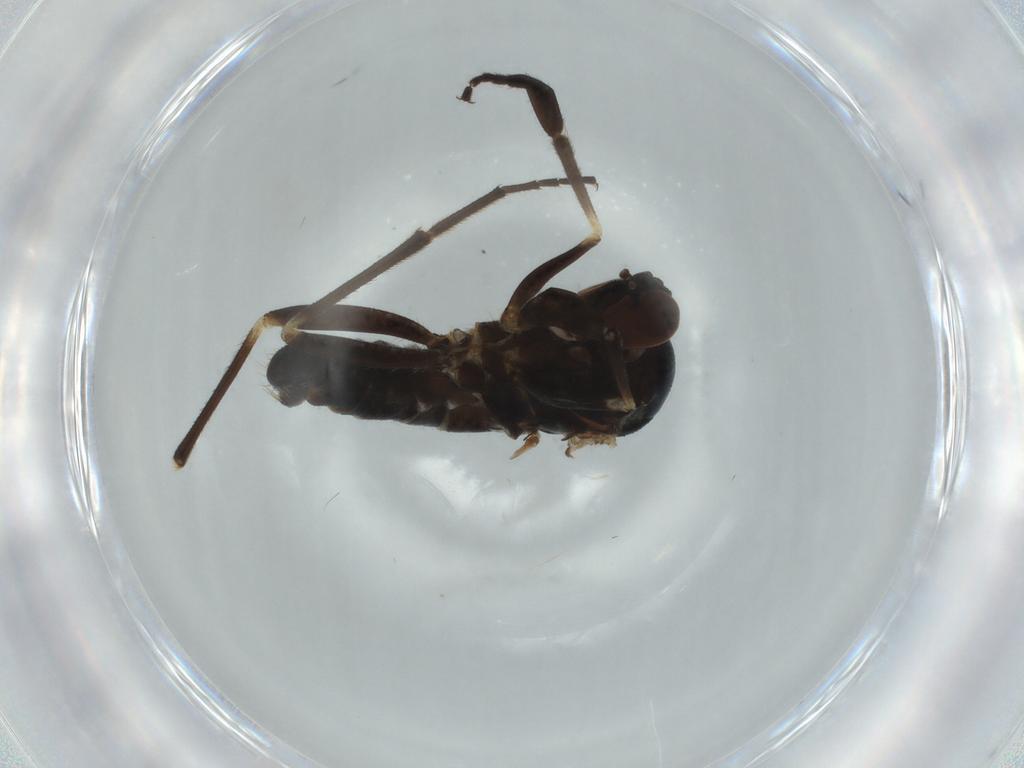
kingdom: Animalia
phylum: Arthropoda
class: Insecta
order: Diptera
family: Empididae
